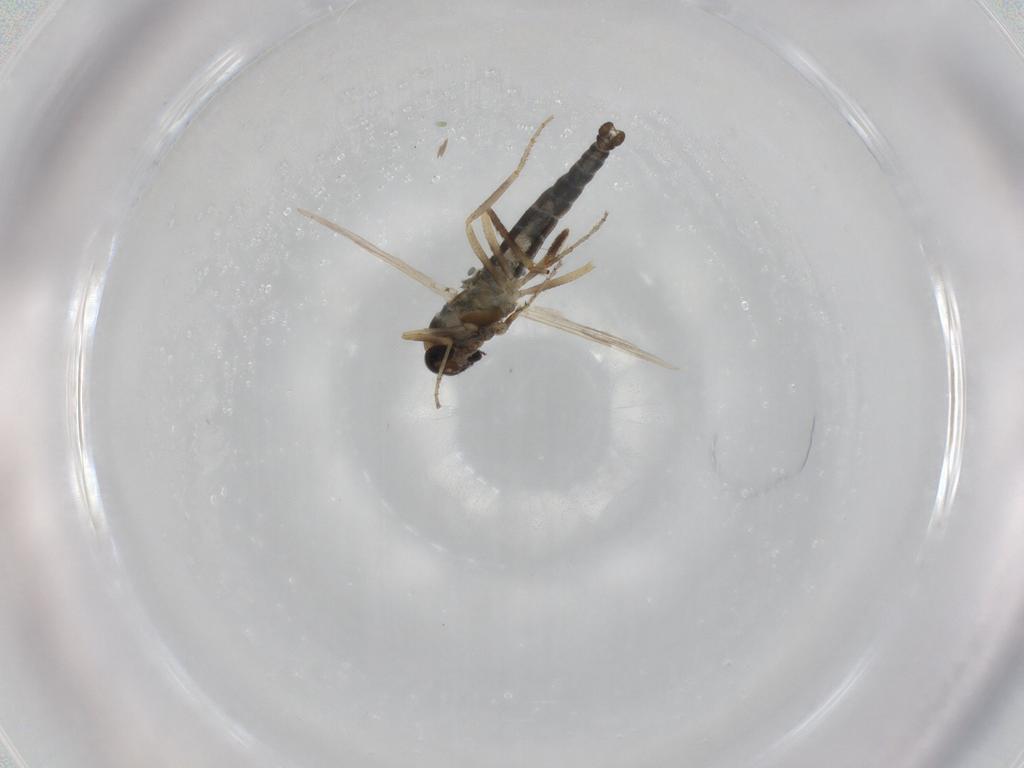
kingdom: Animalia
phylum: Arthropoda
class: Insecta
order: Diptera
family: Ceratopogonidae
